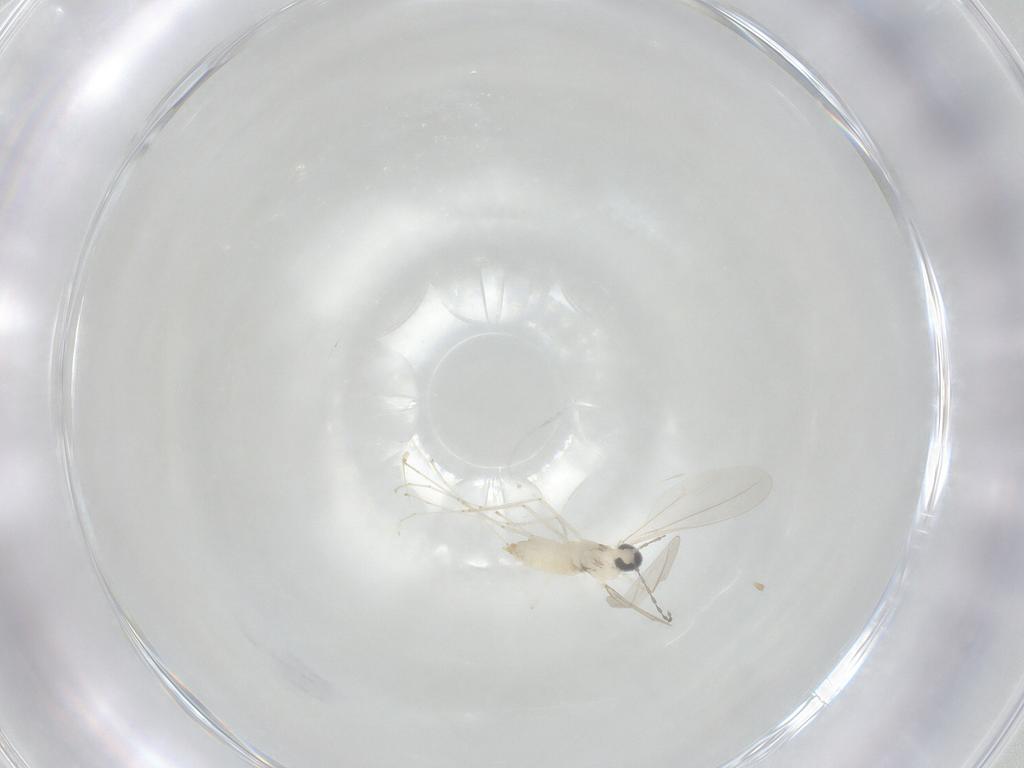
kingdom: Animalia
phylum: Arthropoda
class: Insecta
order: Diptera
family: Cecidomyiidae
